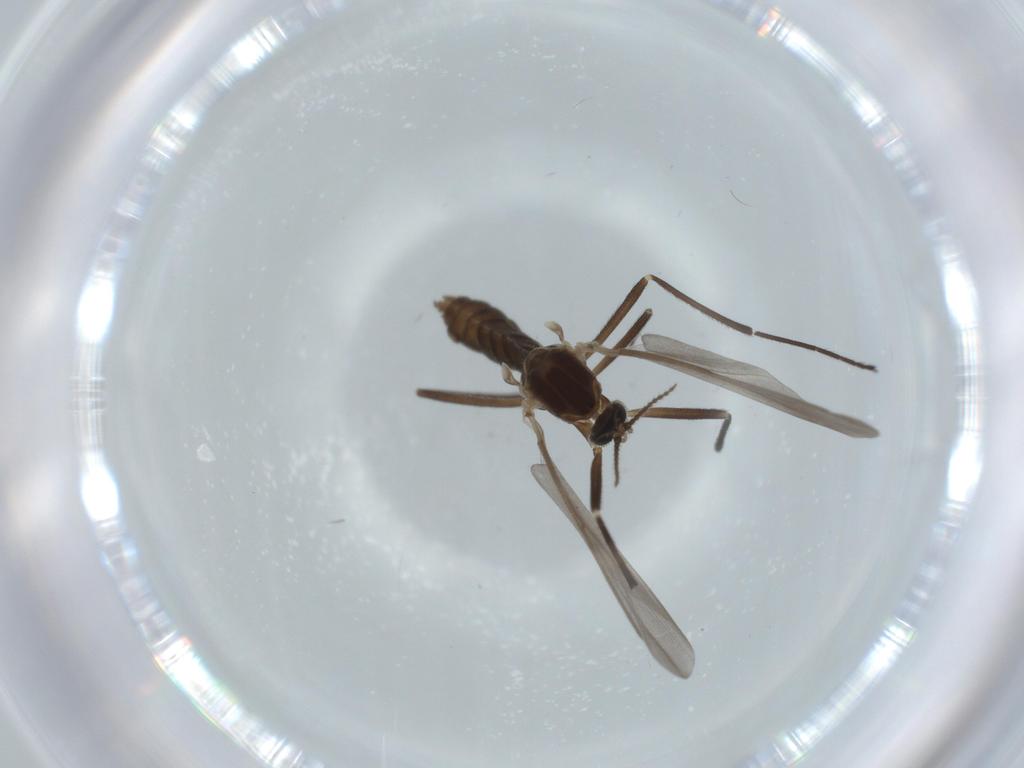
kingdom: Animalia
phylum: Arthropoda
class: Insecta
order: Diptera
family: Cecidomyiidae
